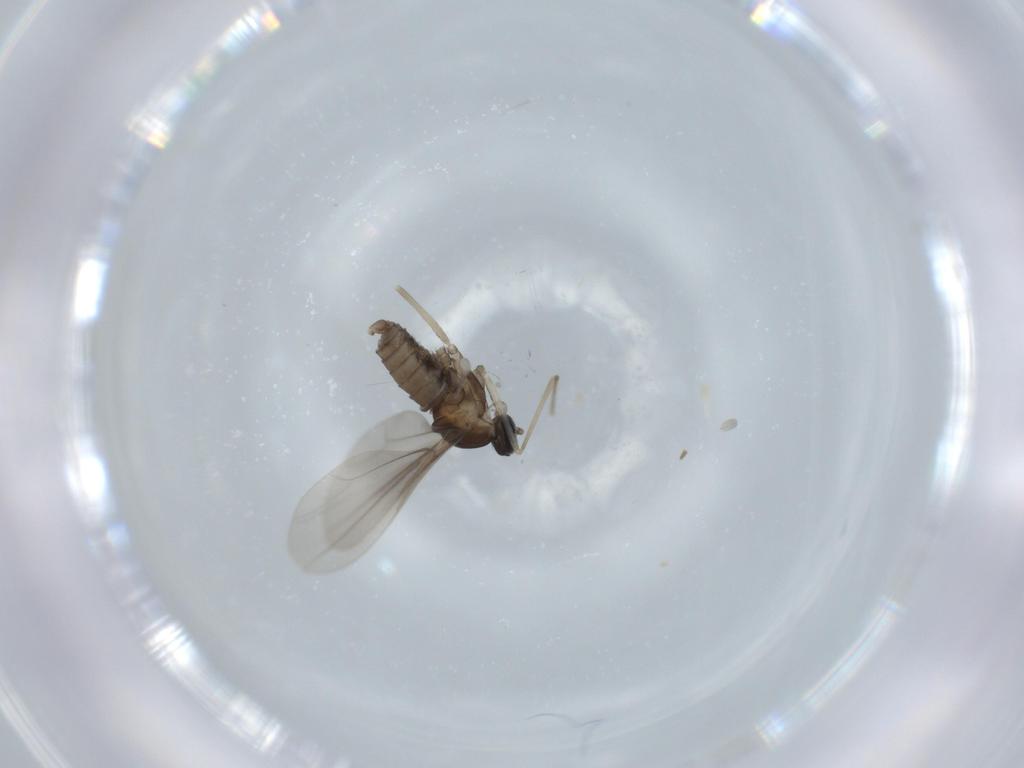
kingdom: Animalia
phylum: Arthropoda
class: Insecta
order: Diptera
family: Cecidomyiidae
